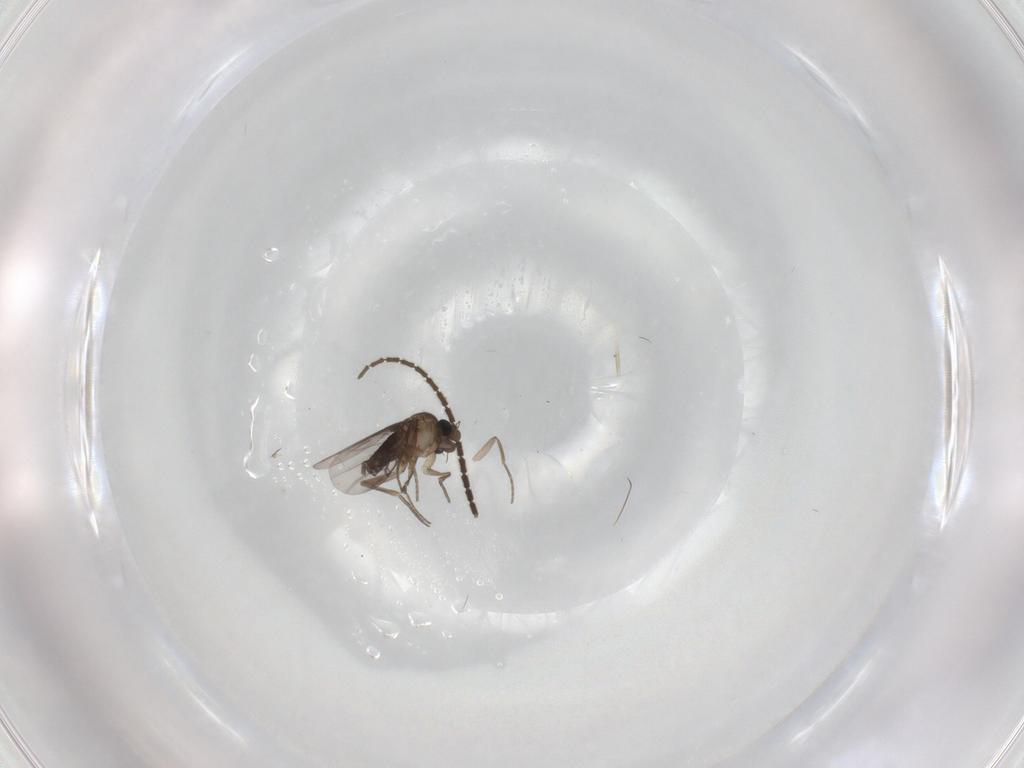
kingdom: Animalia
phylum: Arthropoda
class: Insecta
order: Diptera
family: Sciaridae
